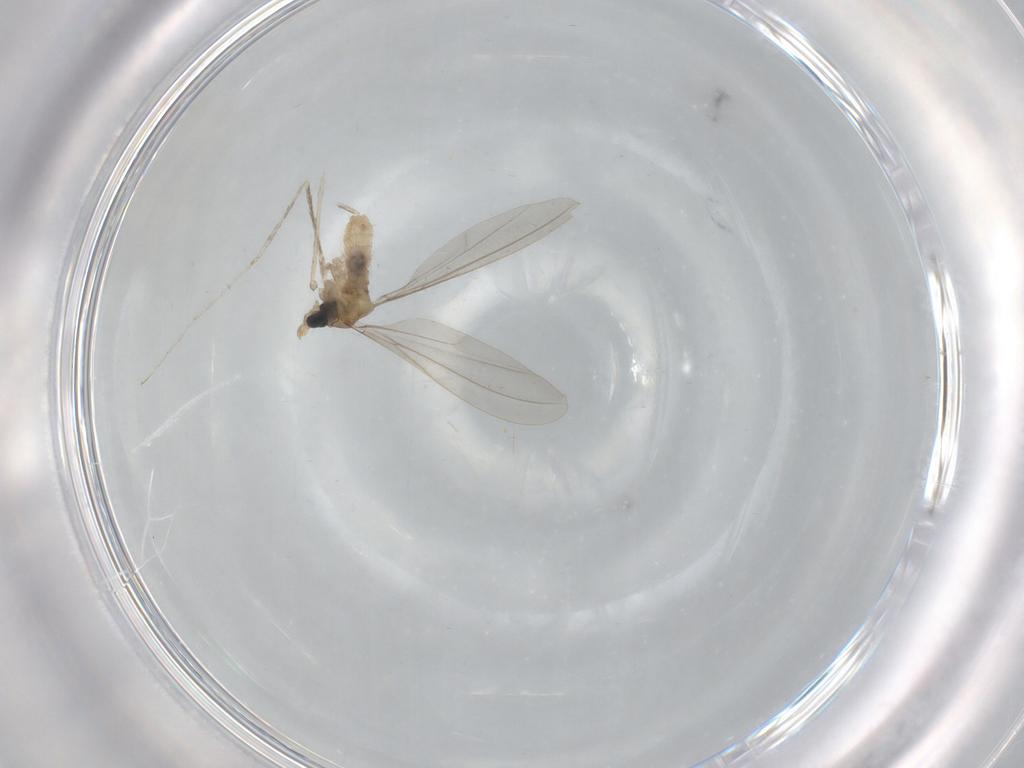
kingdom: Animalia
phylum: Arthropoda
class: Insecta
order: Diptera
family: Cecidomyiidae
